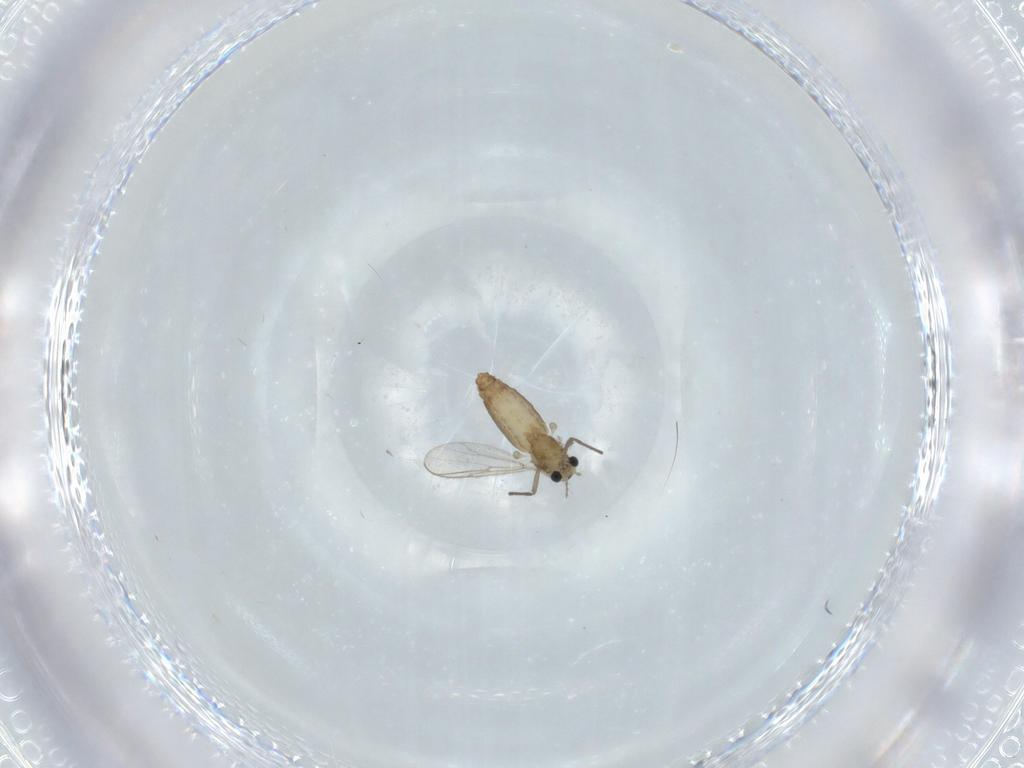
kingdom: Animalia
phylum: Arthropoda
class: Insecta
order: Diptera
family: Chironomidae
